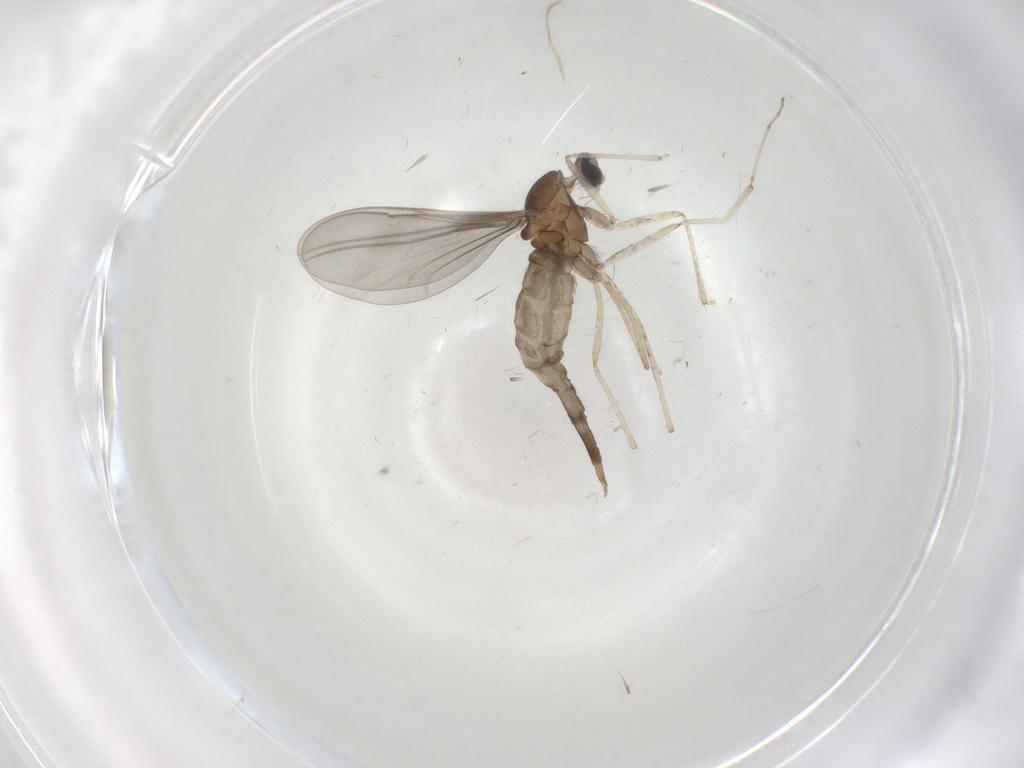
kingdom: Animalia
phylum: Arthropoda
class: Insecta
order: Diptera
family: Cecidomyiidae
